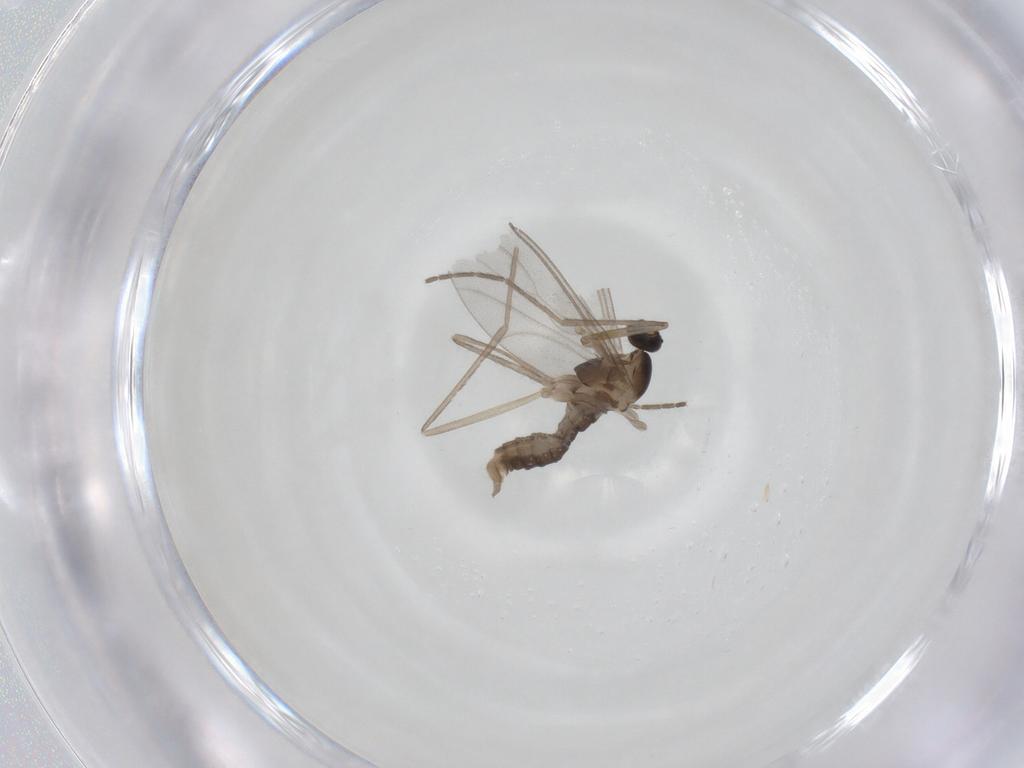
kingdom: Animalia
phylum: Arthropoda
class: Insecta
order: Diptera
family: Cecidomyiidae
